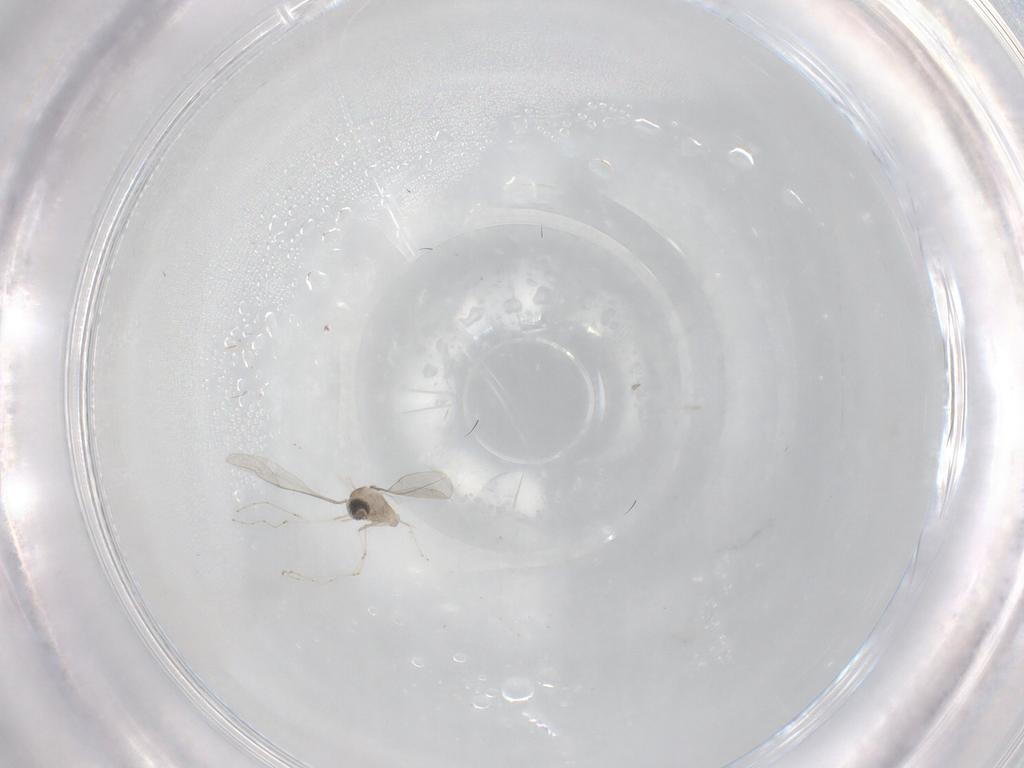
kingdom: Animalia
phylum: Arthropoda
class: Insecta
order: Diptera
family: Cecidomyiidae
